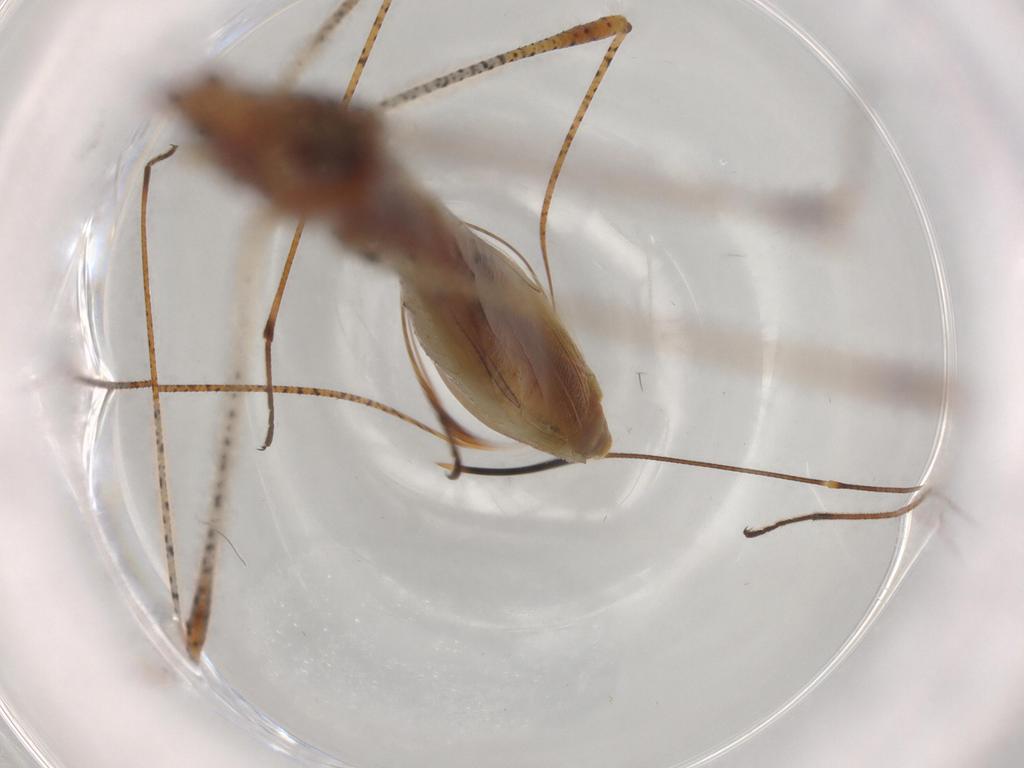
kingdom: Animalia
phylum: Arthropoda
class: Insecta
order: Hemiptera
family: Berytidae
